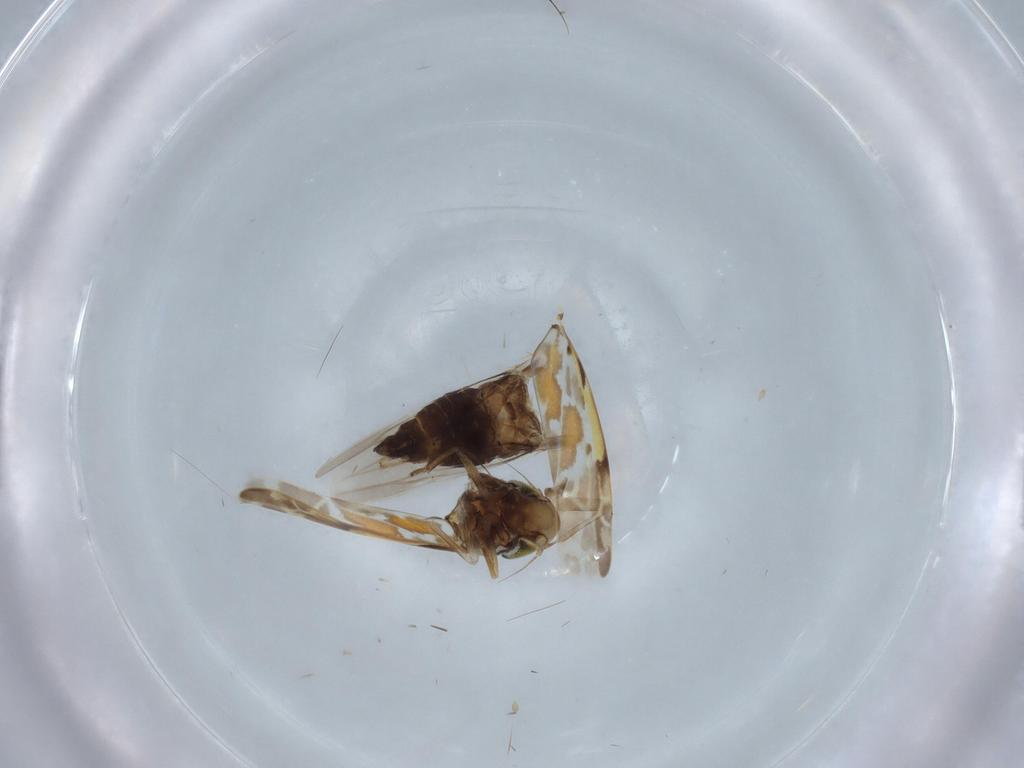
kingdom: Animalia
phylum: Arthropoda
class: Insecta
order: Hemiptera
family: Cicadellidae
